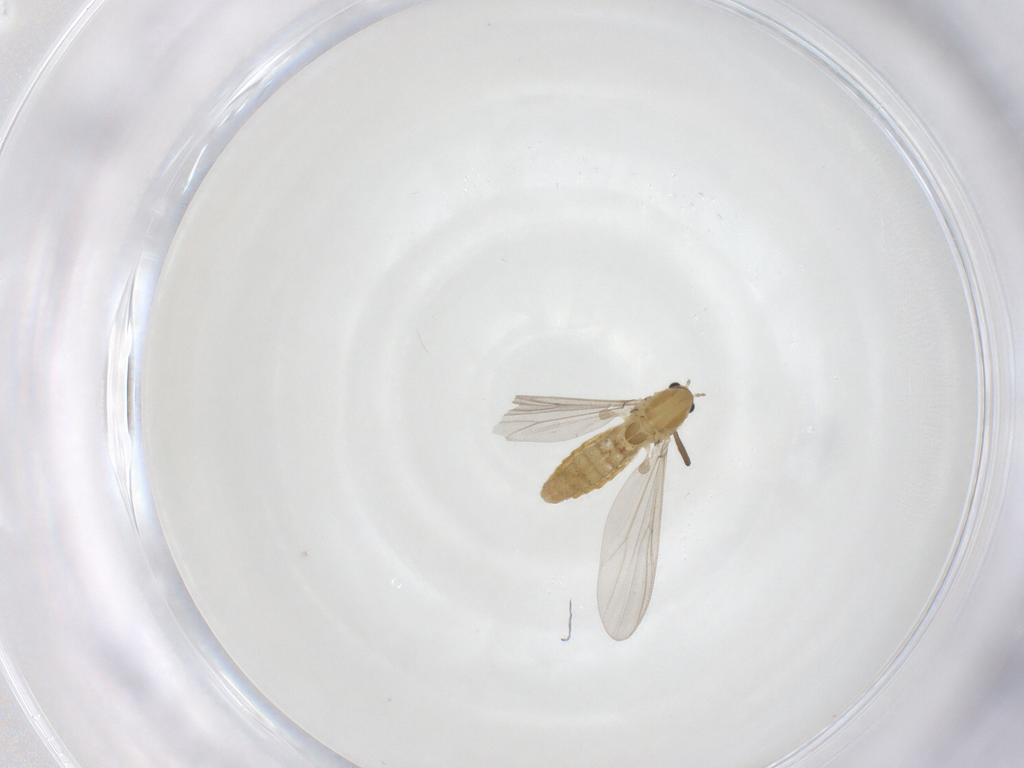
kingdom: Animalia
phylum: Arthropoda
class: Insecta
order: Diptera
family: Chironomidae
